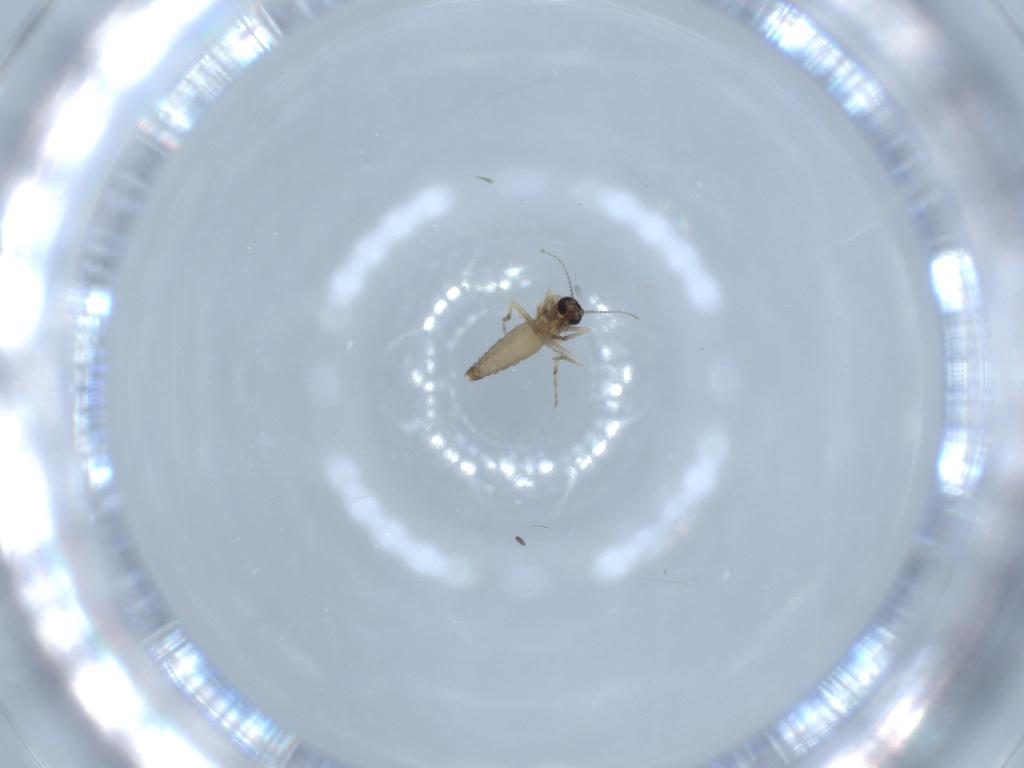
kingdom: Animalia
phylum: Arthropoda
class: Insecta
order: Diptera
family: Ceratopogonidae
